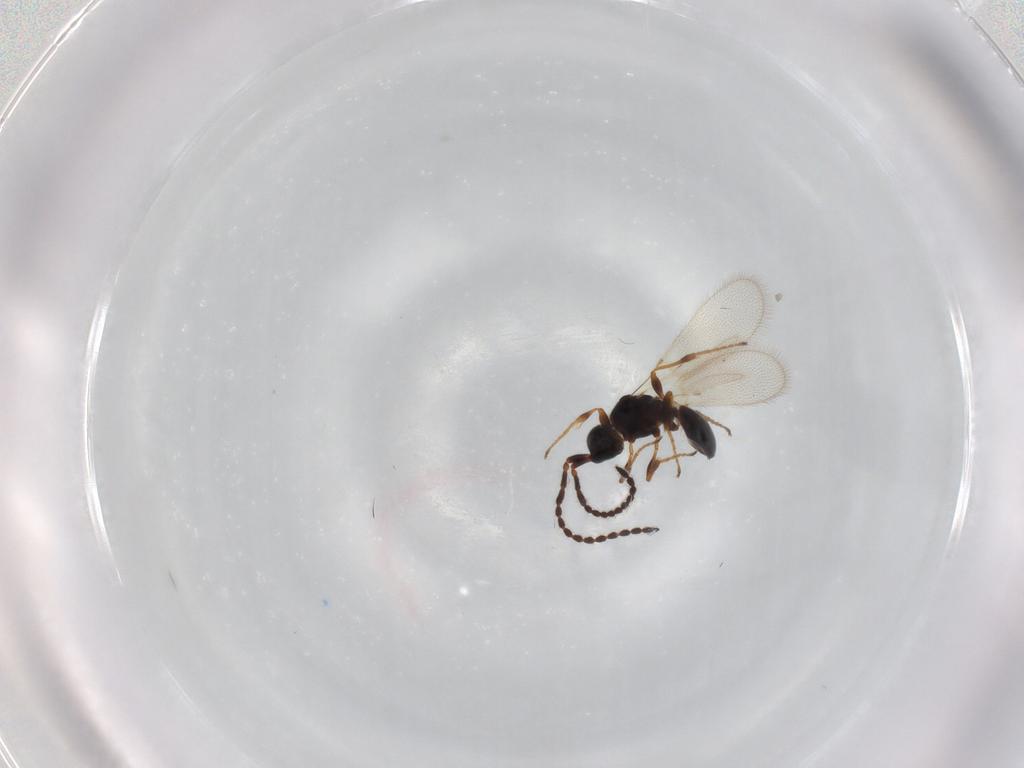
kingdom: Animalia
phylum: Arthropoda
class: Insecta
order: Hymenoptera
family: Diapriidae
